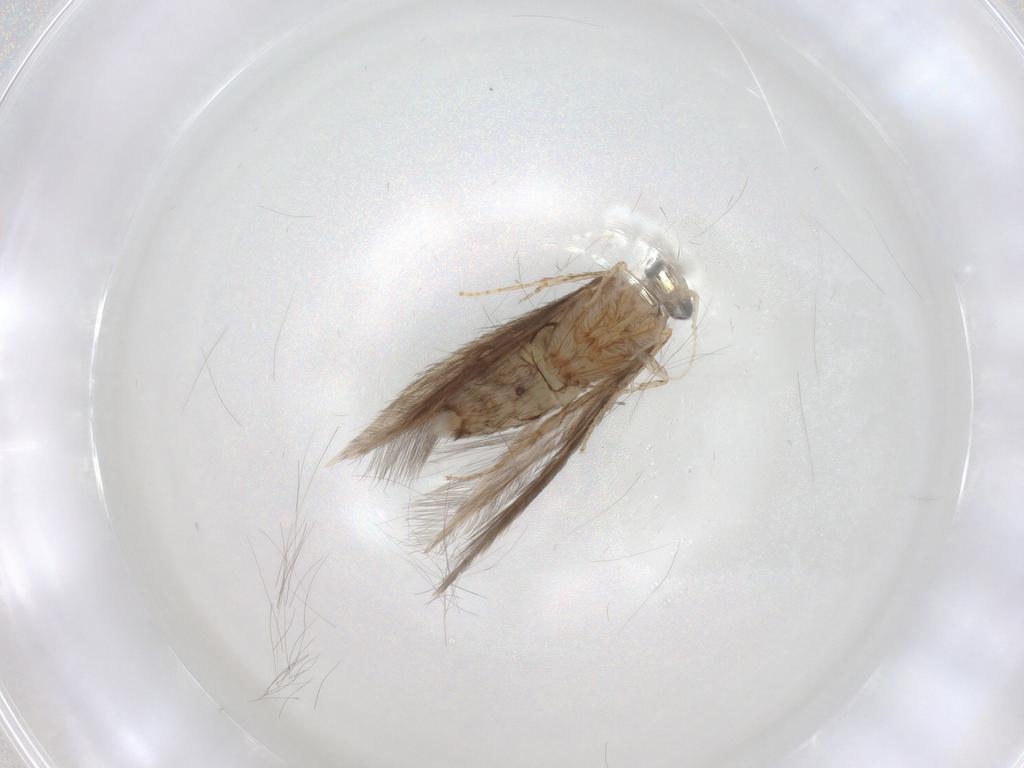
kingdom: Animalia
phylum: Arthropoda
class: Insecta
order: Trichoptera
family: Hydroptilidae
